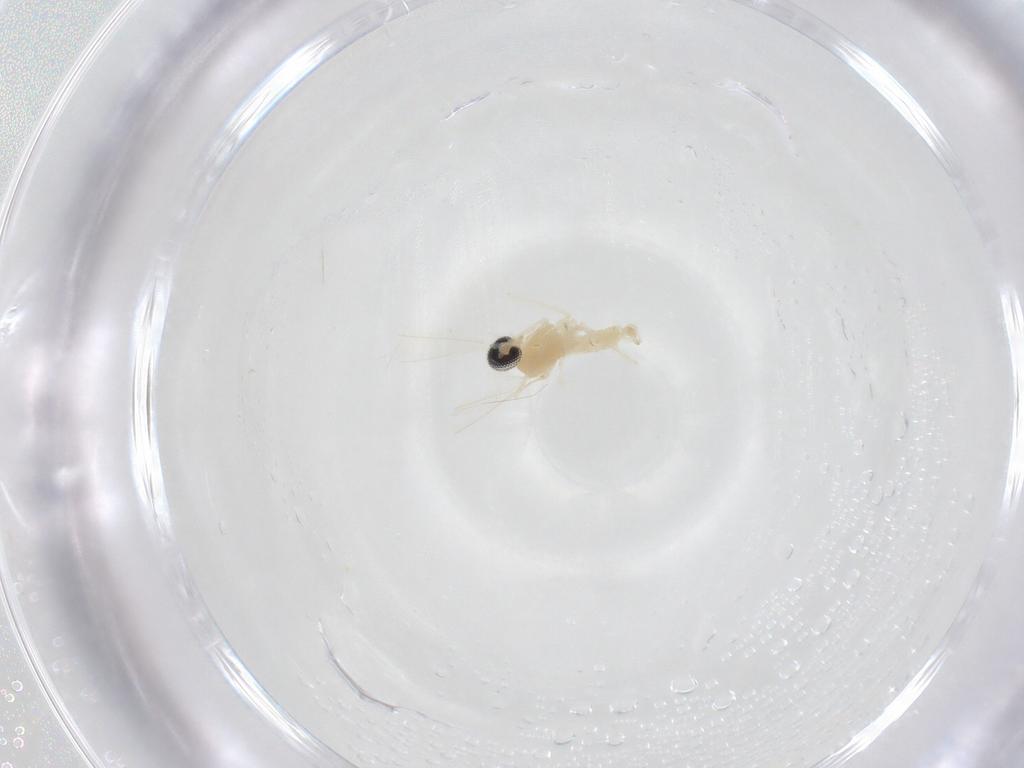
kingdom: Animalia
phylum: Arthropoda
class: Insecta
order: Diptera
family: Cecidomyiidae
